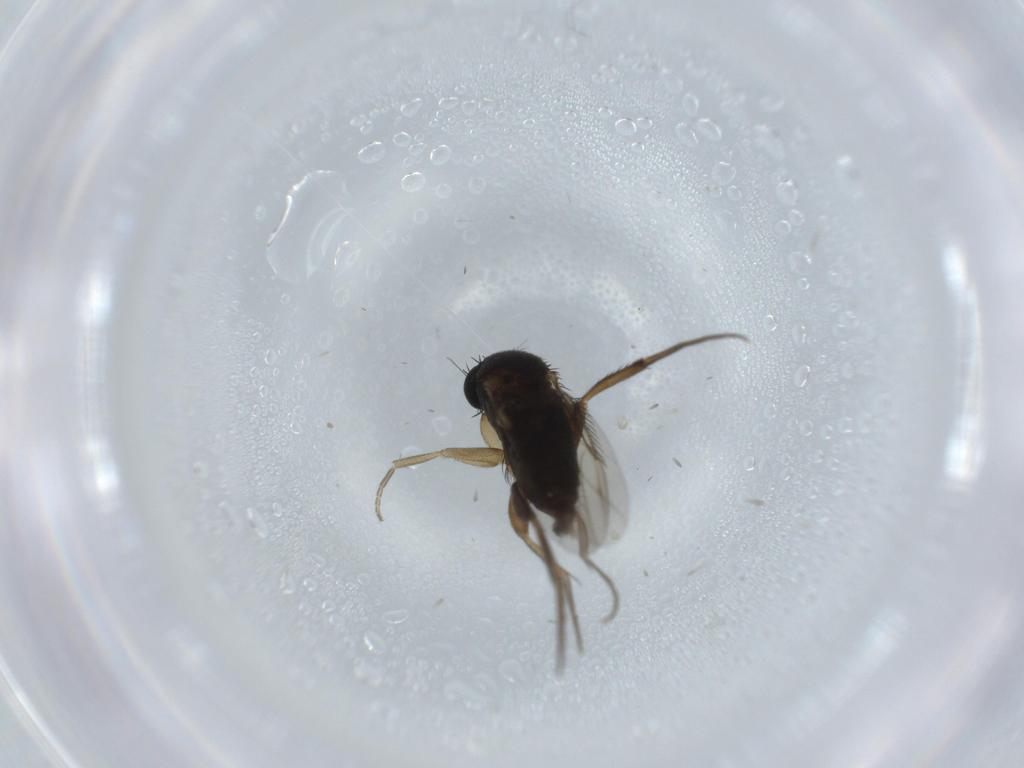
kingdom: Animalia
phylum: Arthropoda
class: Insecta
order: Diptera
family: Phoridae
